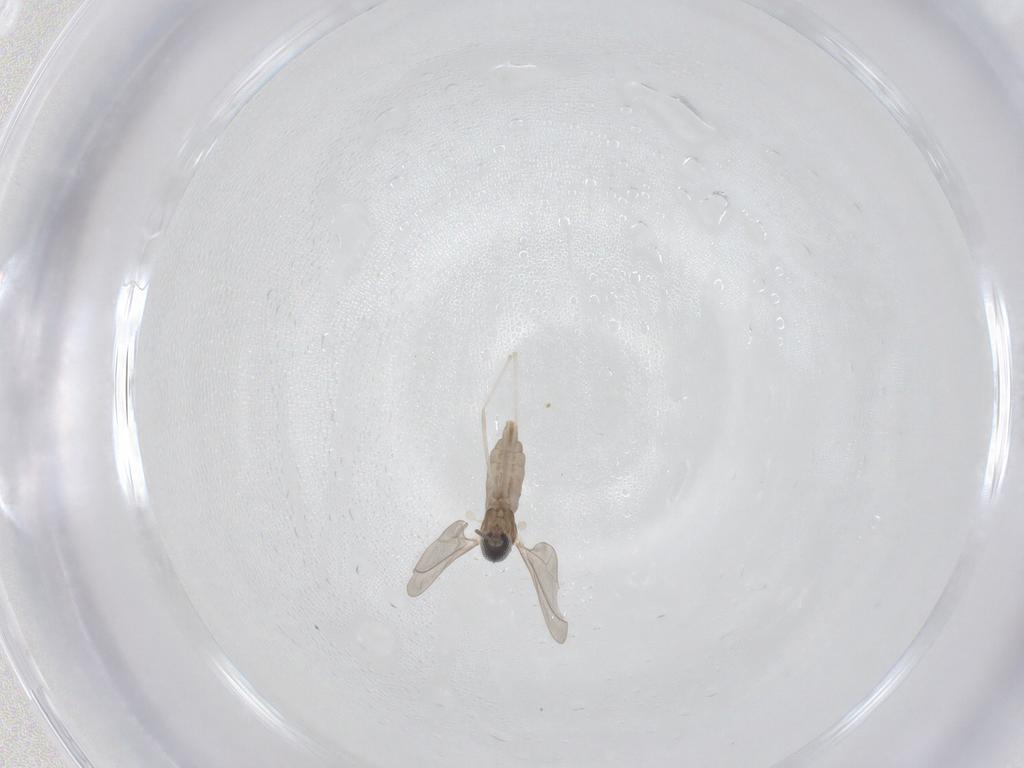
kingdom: Animalia
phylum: Arthropoda
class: Insecta
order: Diptera
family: Cecidomyiidae
